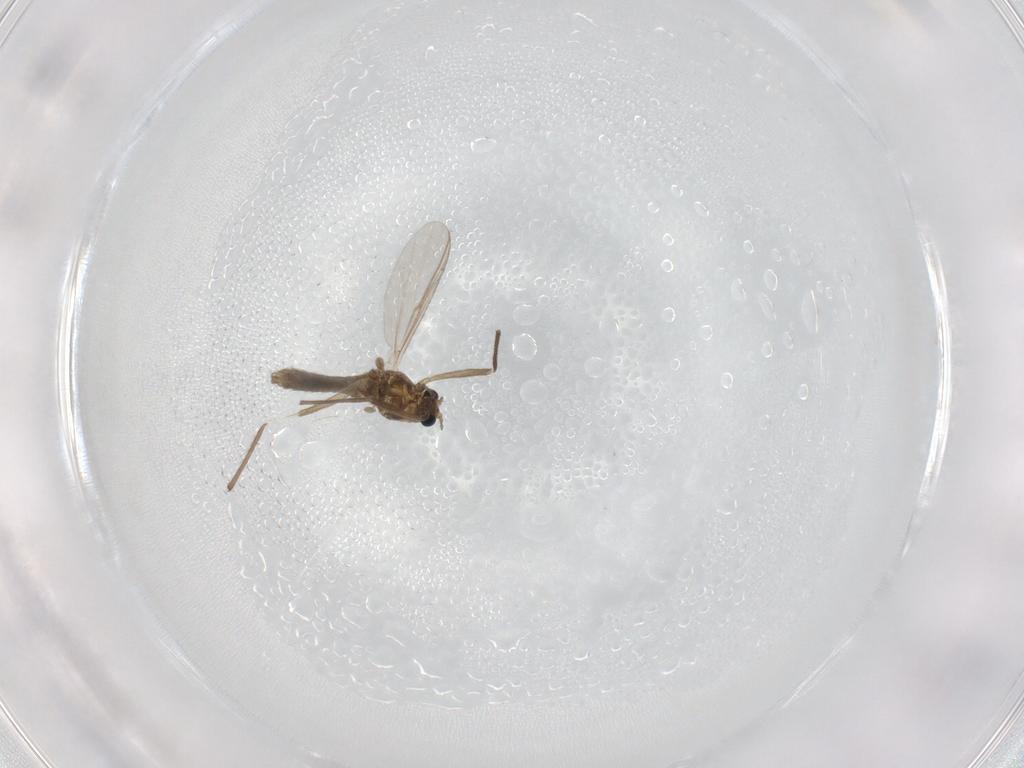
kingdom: Animalia
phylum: Arthropoda
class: Insecta
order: Diptera
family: Chironomidae
